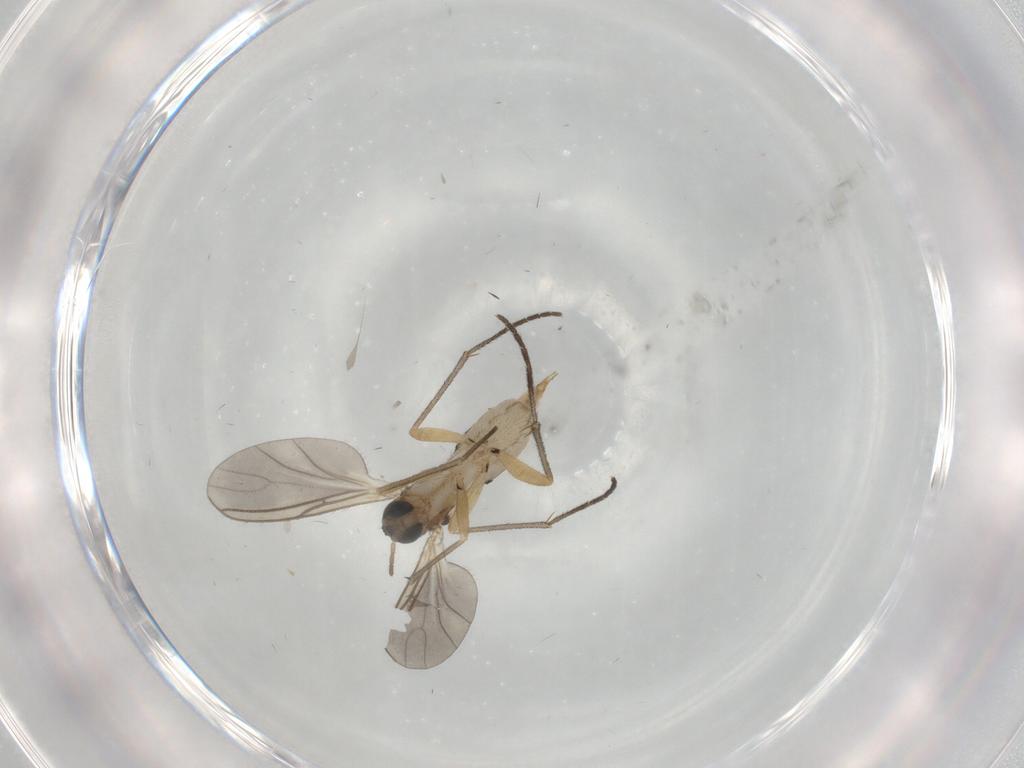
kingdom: Animalia
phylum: Arthropoda
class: Insecta
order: Diptera
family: Sciaridae
